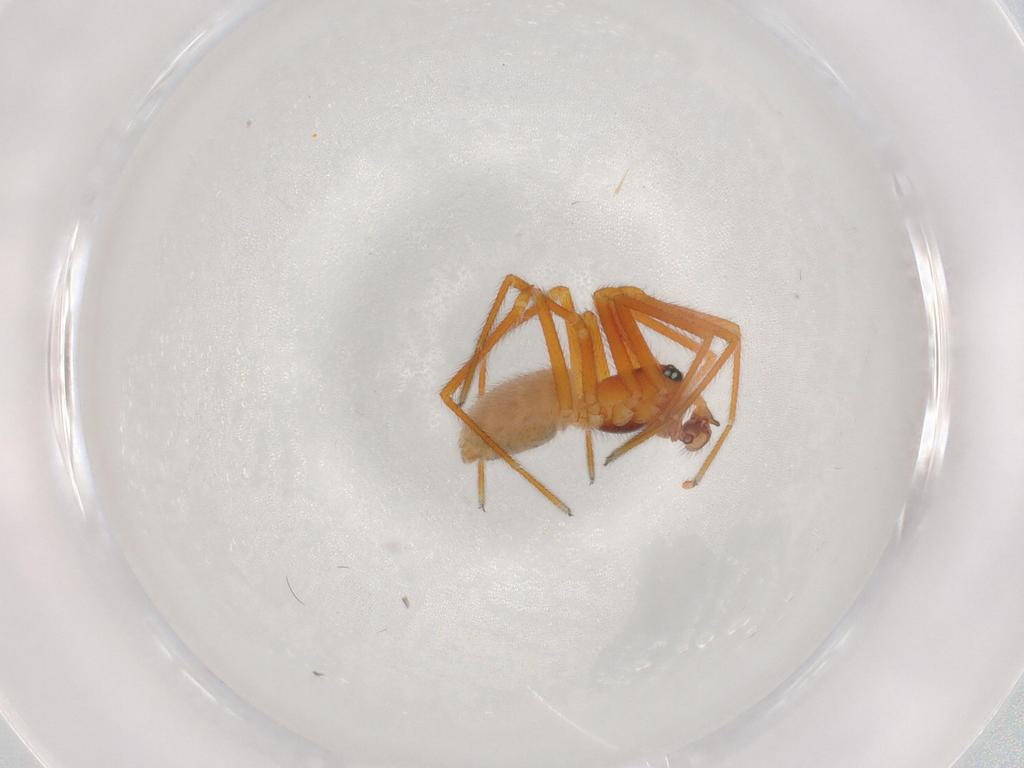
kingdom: Animalia
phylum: Arthropoda
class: Arachnida
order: Araneae
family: Linyphiidae
